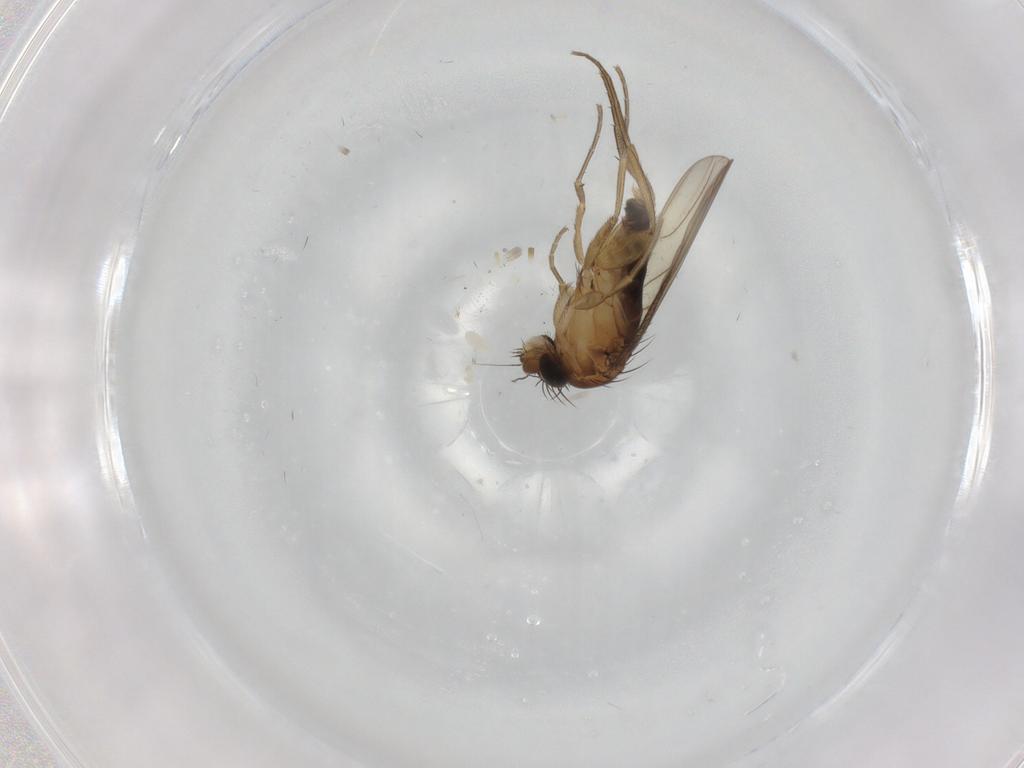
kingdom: Animalia
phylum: Arthropoda
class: Insecta
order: Diptera
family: Phoridae
